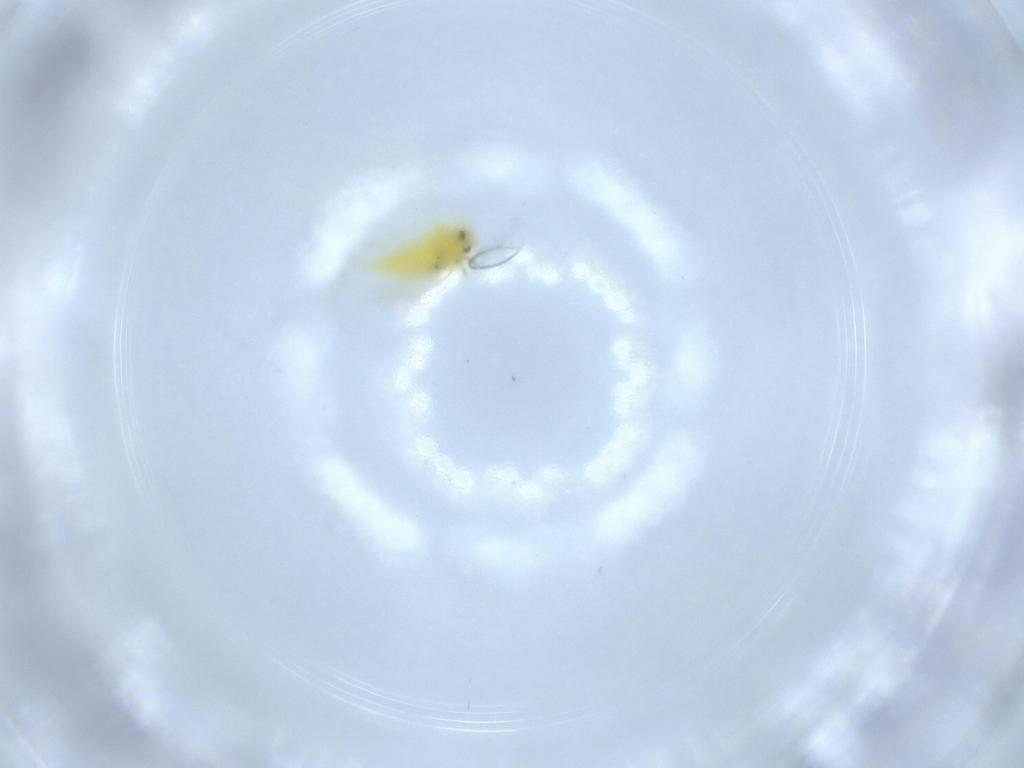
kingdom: Animalia
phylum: Arthropoda
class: Insecta
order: Hemiptera
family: Aleyrodidae
